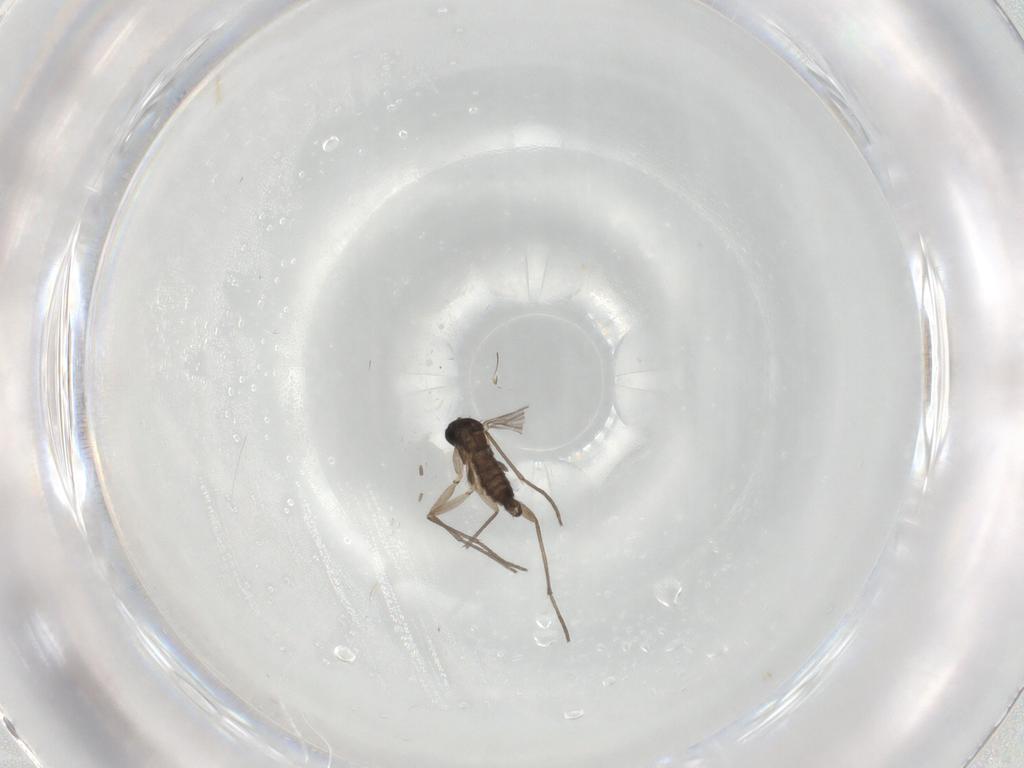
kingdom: Animalia
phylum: Arthropoda
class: Insecta
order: Diptera
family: Sciaridae
